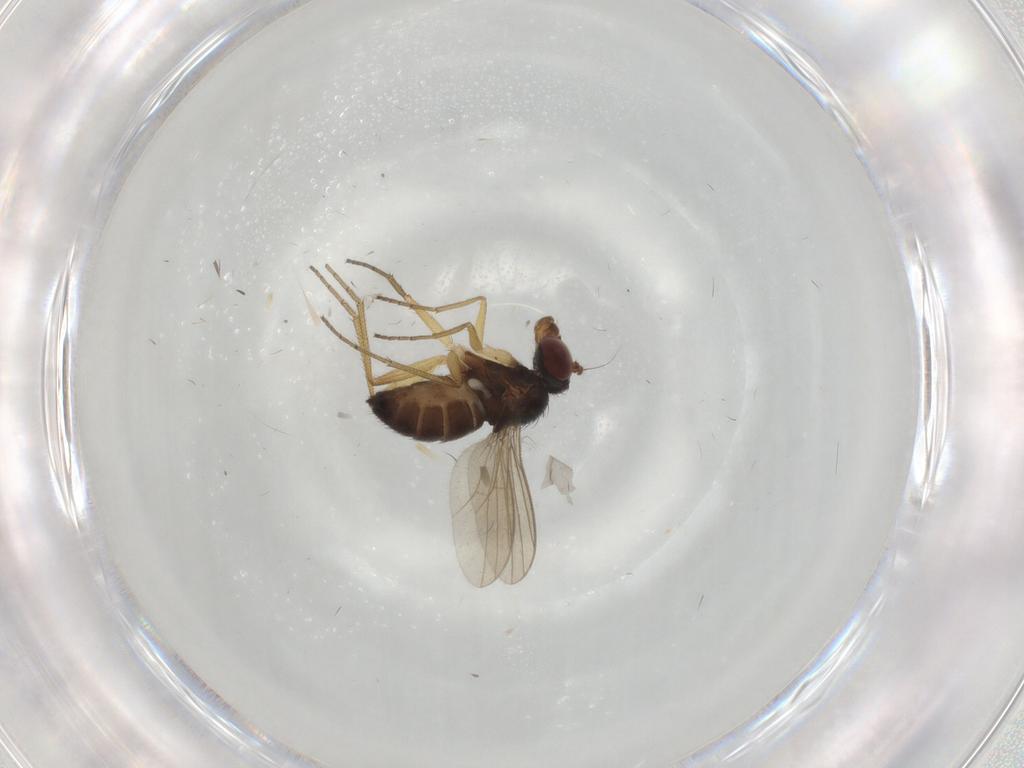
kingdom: Animalia
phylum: Arthropoda
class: Insecta
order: Diptera
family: Dolichopodidae
